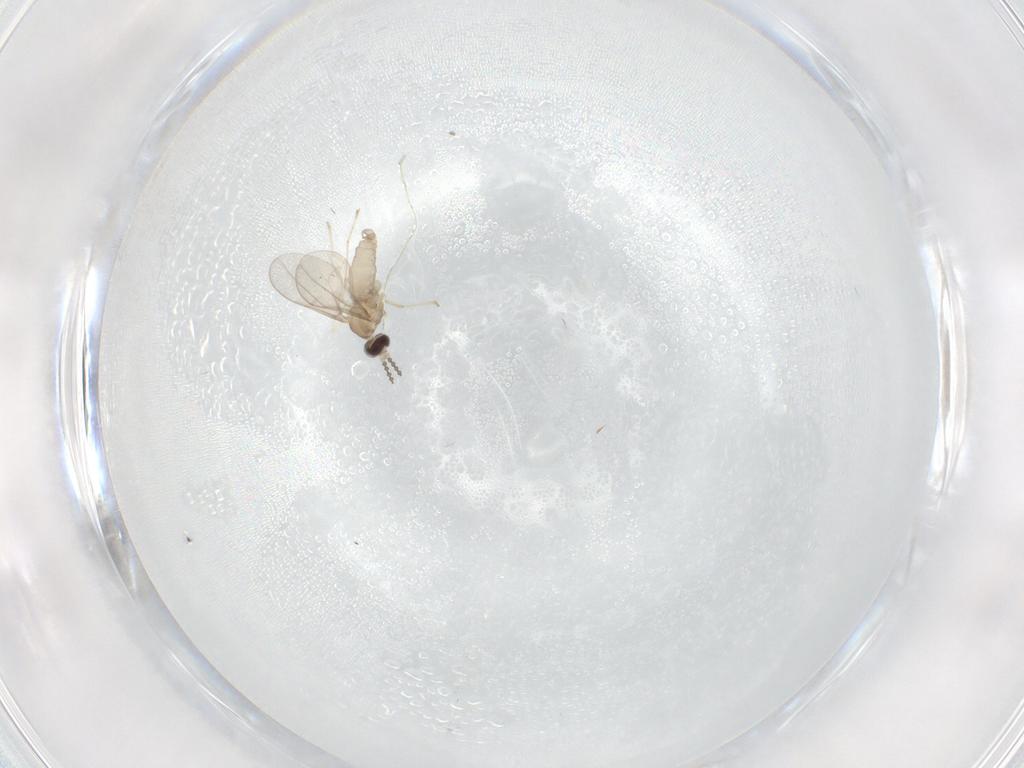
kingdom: Animalia
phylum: Arthropoda
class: Insecta
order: Diptera
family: Cecidomyiidae
